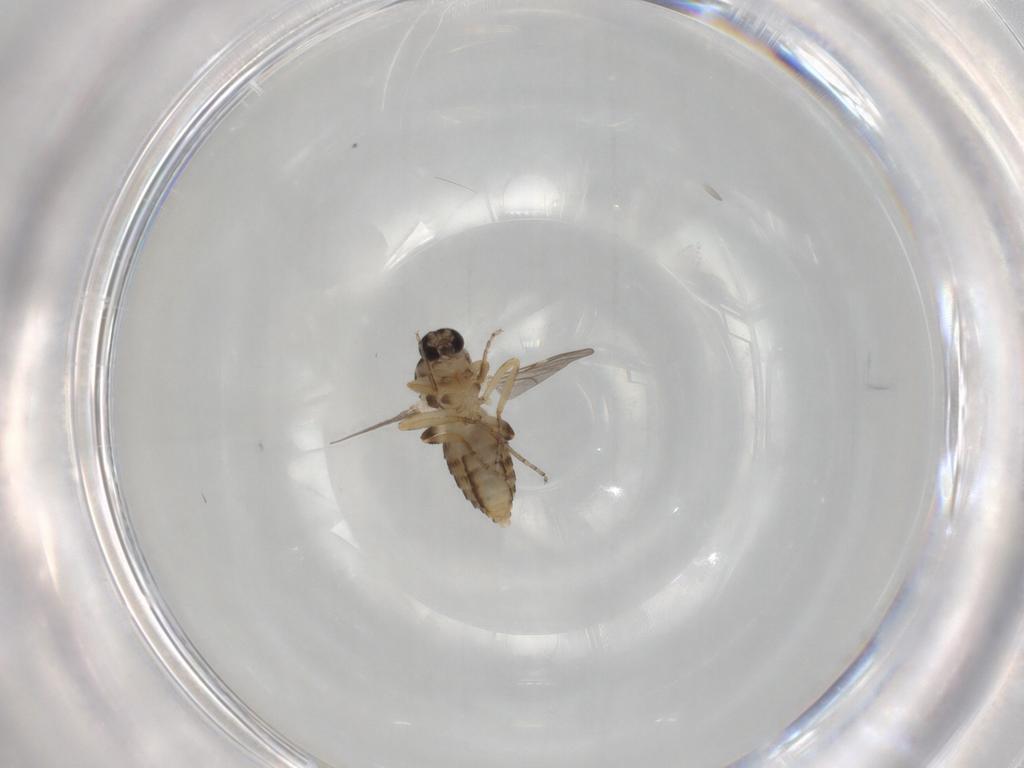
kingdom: Animalia
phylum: Arthropoda
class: Insecta
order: Diptera
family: Ceratopogonidae
